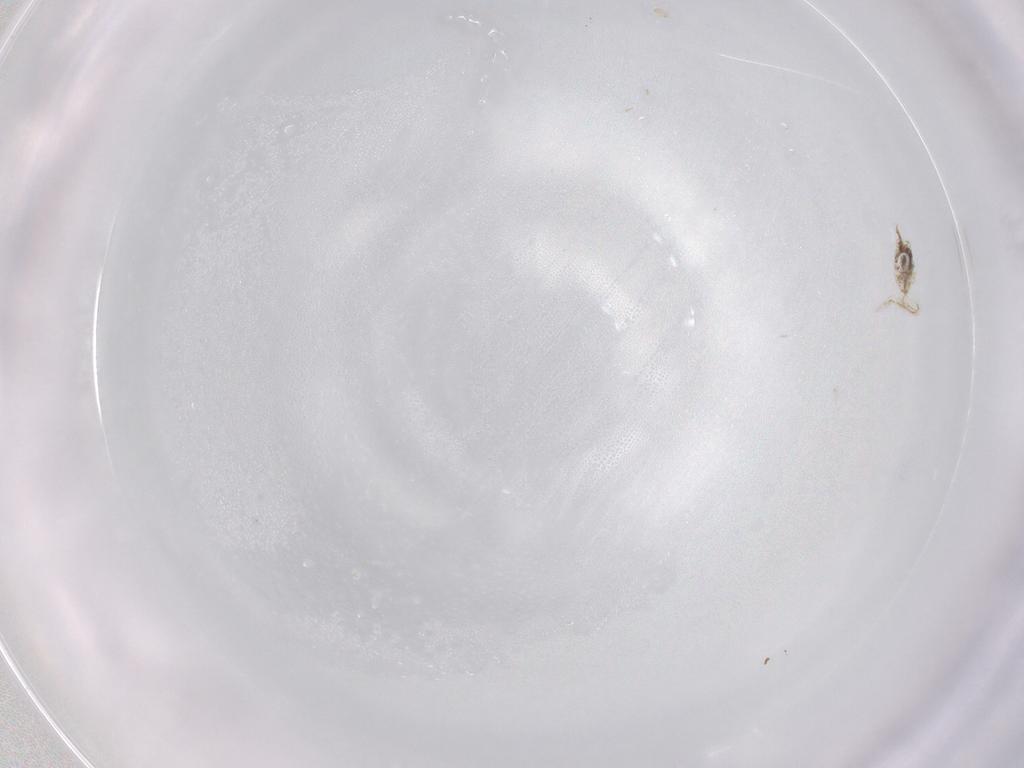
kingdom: Animalia
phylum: Arthropoda
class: Arachnida
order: Trombidiformes
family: Stigmaeidae
